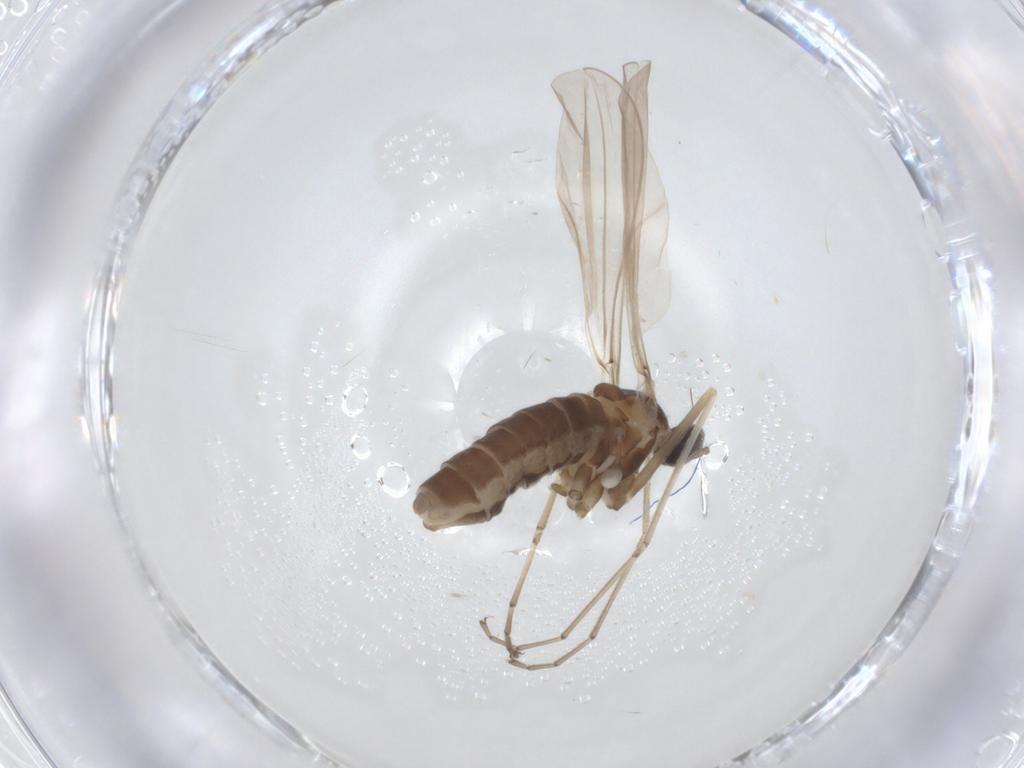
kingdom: Animalia
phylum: Arthropoda
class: Insecta
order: Diptera
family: Cecidomyiidae
